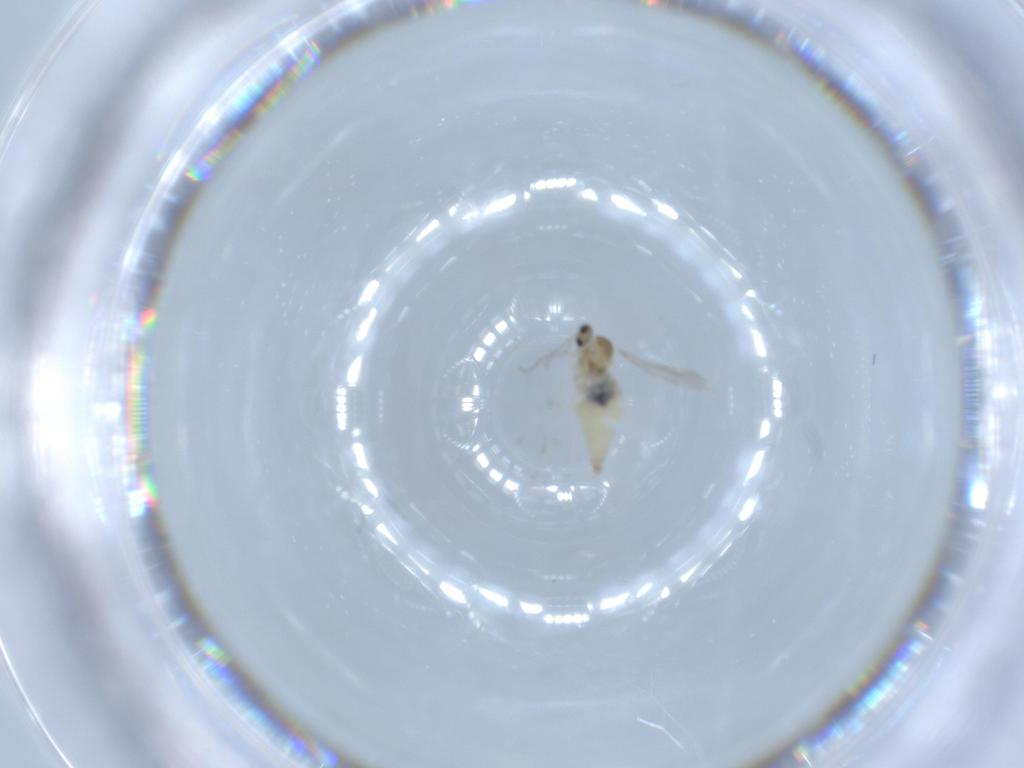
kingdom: Animalia
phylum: Arthropoda
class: Insecta
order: Diptera
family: Cecidomyiidae
